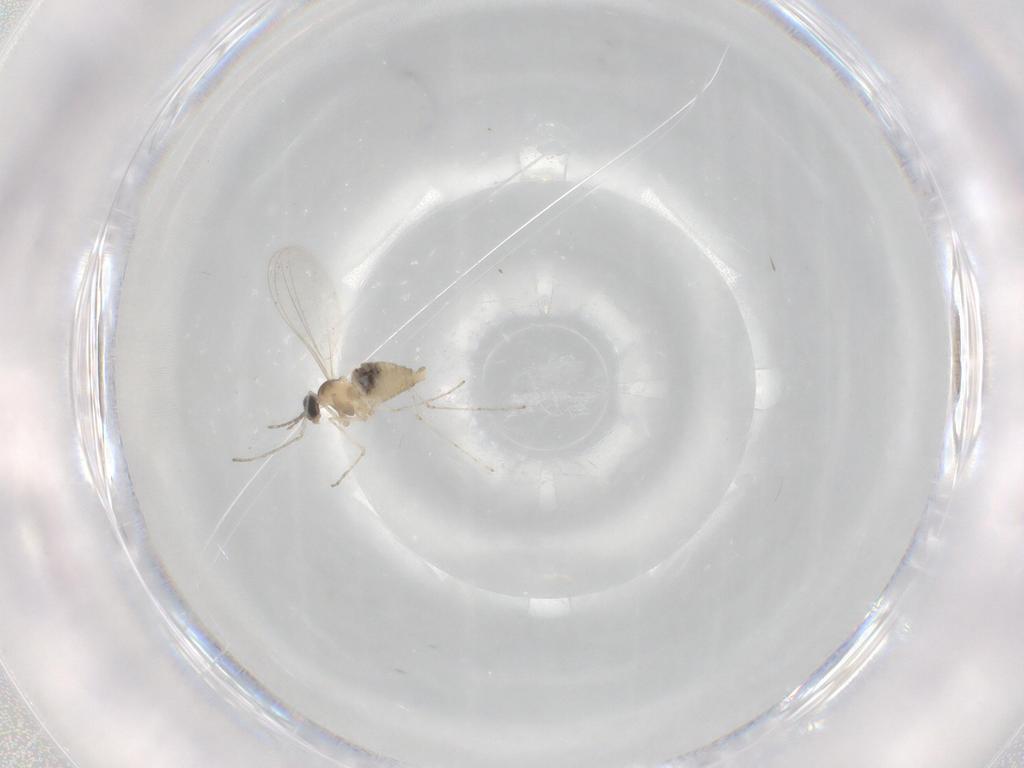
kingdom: Animalia
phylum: Arthropoda
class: Insecta
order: Diptera
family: Cecidomyiidae
